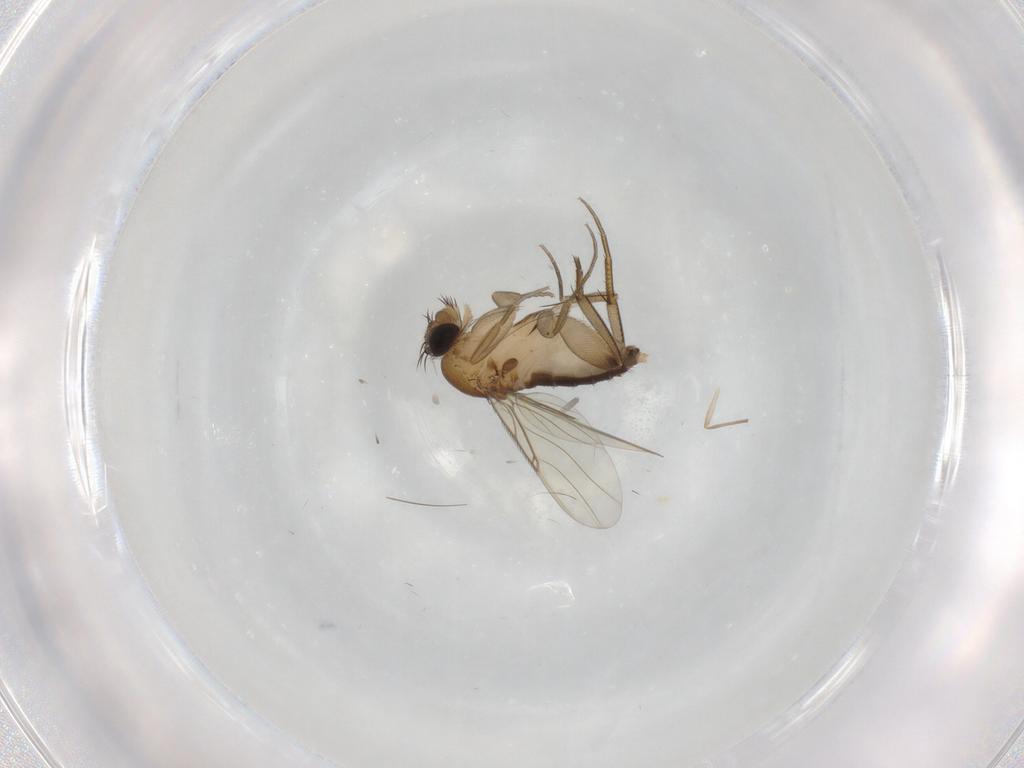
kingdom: Animalia
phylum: Arthropoda
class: Insecta
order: Diptera
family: Phoridae
